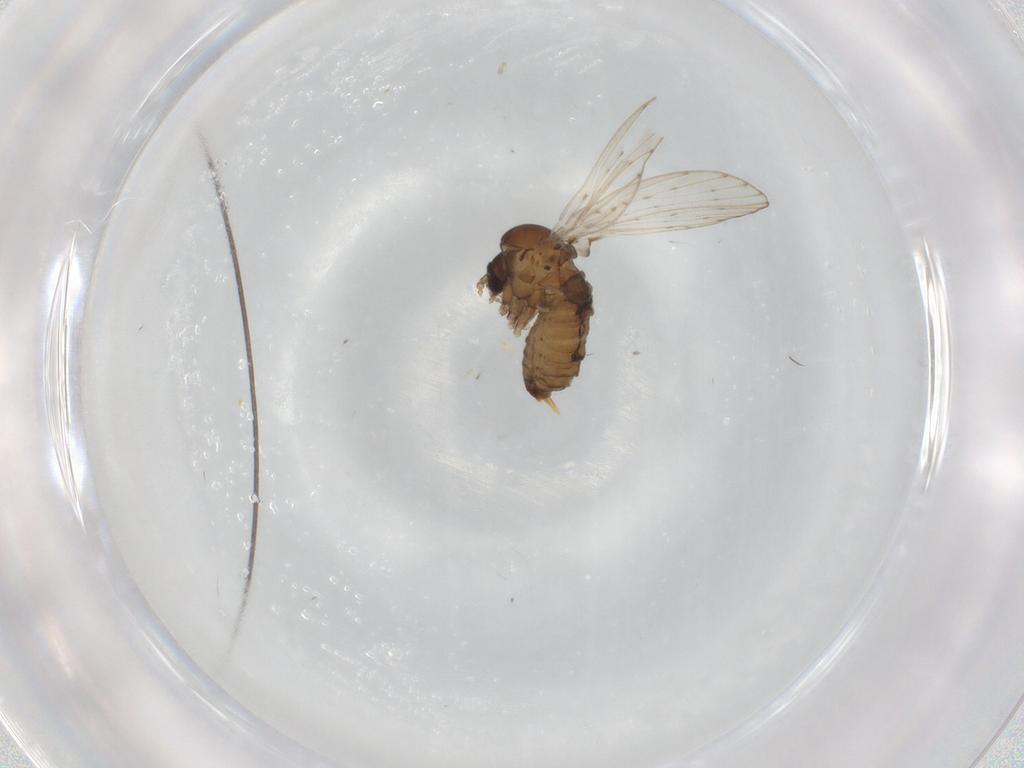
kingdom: Animalia
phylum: Arthropoda
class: Insecta
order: Diptera
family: Psychodidae
